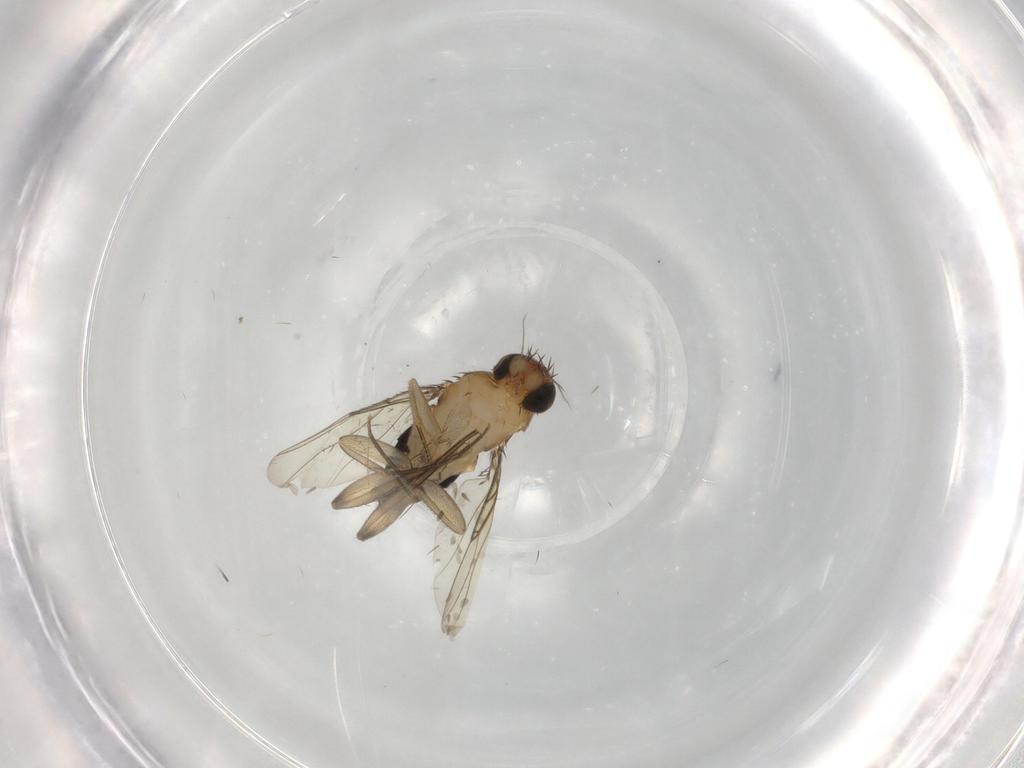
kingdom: Animalia
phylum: Arthropoda
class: Insecta
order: Diptera
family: Phoridae
